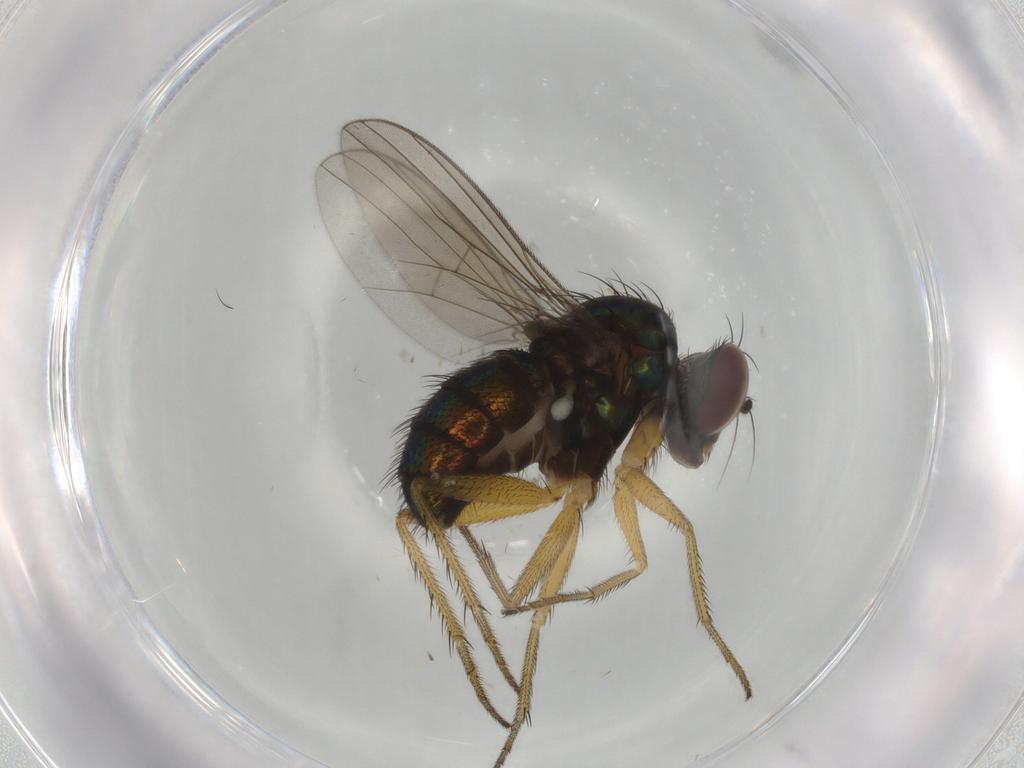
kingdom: Animalia
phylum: Arthropoda
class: Insecta
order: Diptera
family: Dolichopodidae
